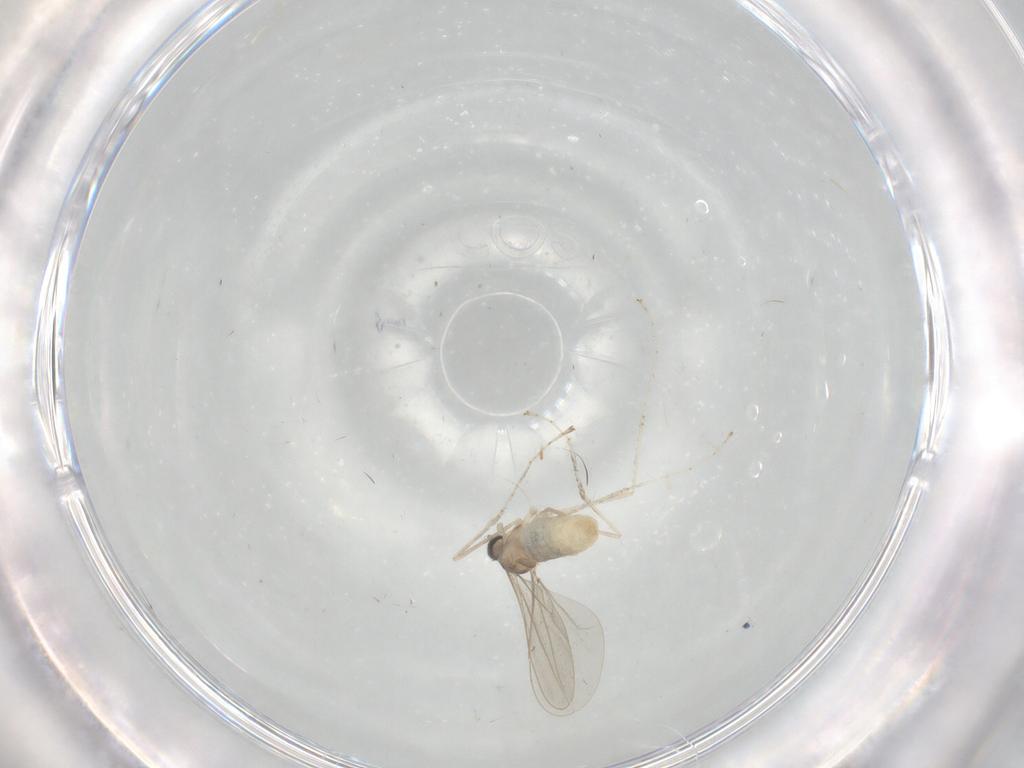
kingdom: Animalia
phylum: Arthropoda
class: Insecta
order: Diptera
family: Cecidomyiidae
